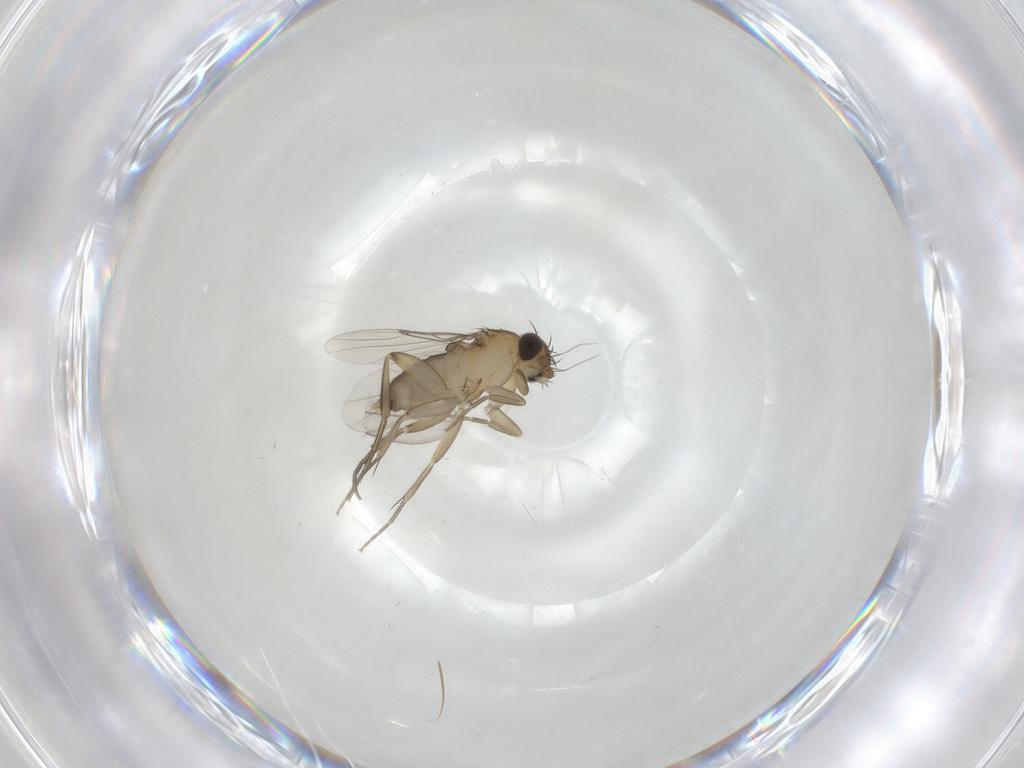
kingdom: Animalia
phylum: Arthropoda
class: Insecta
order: Diptera
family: Phoridae
